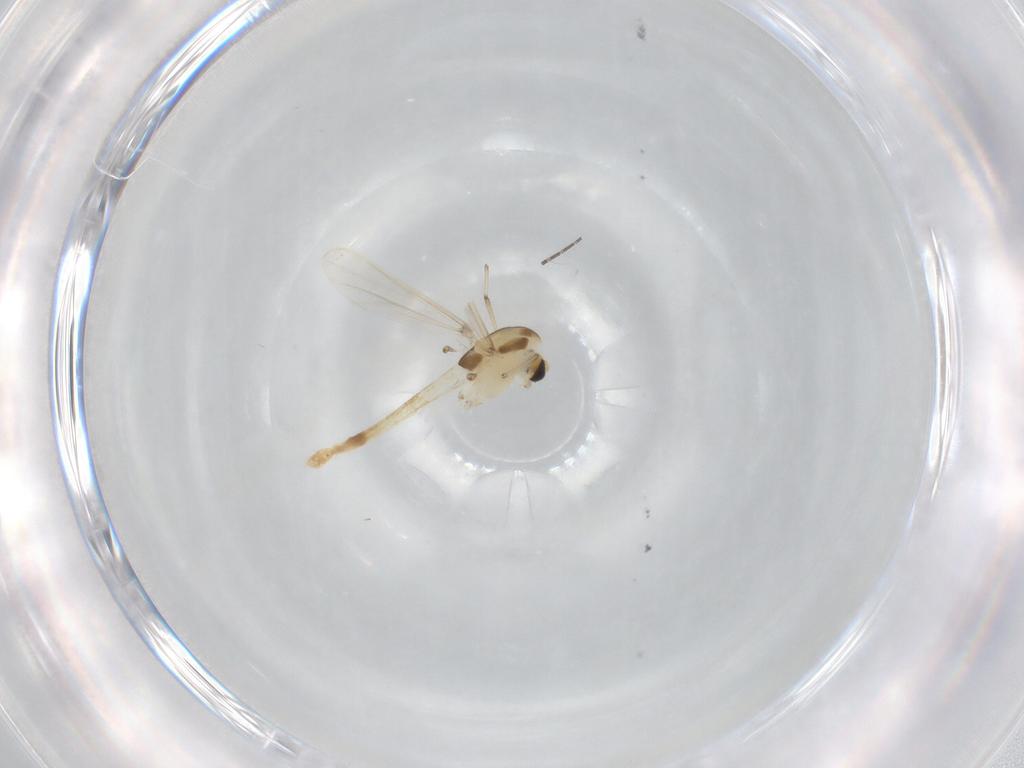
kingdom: Animalia
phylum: Arthropoda
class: Insecta
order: Diptera
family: Chironomidae
